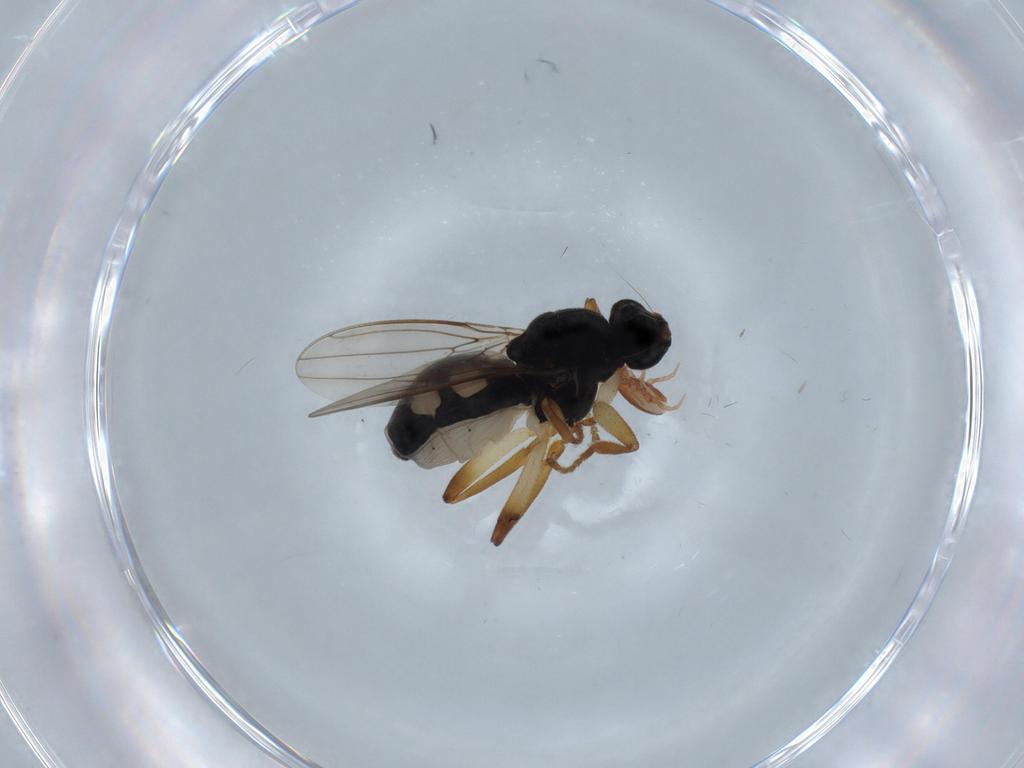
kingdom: Animalia
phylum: Arthropoda
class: Insecta
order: Diptera
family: Sphaeroceridae
